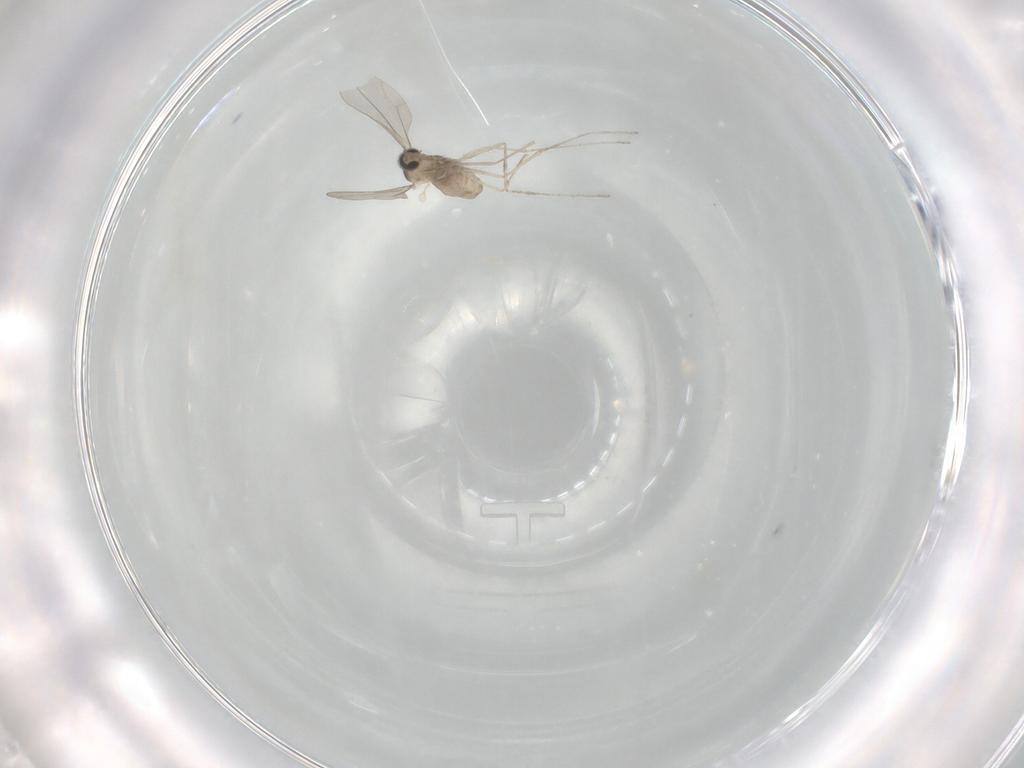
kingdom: Animalia
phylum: Arthropoda
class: Insecta
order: Diptera
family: Cecidomyiidae
